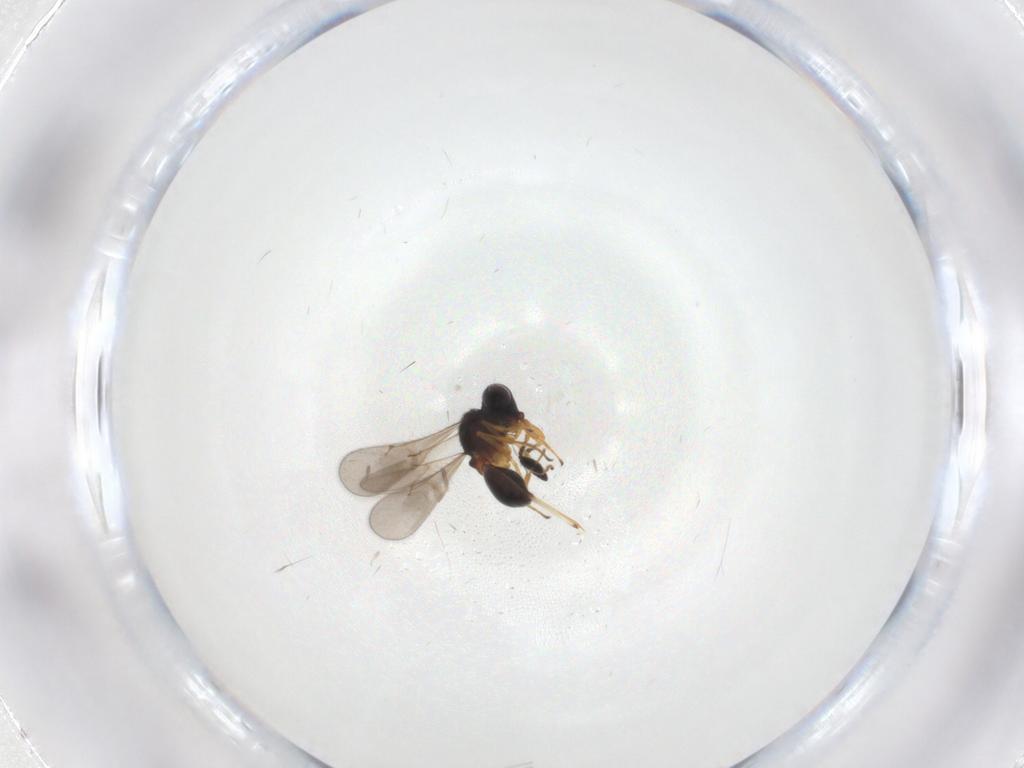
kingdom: Animalia
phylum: Arthropoda
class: Insecta
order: Hymenoptera
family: Scelionidae
